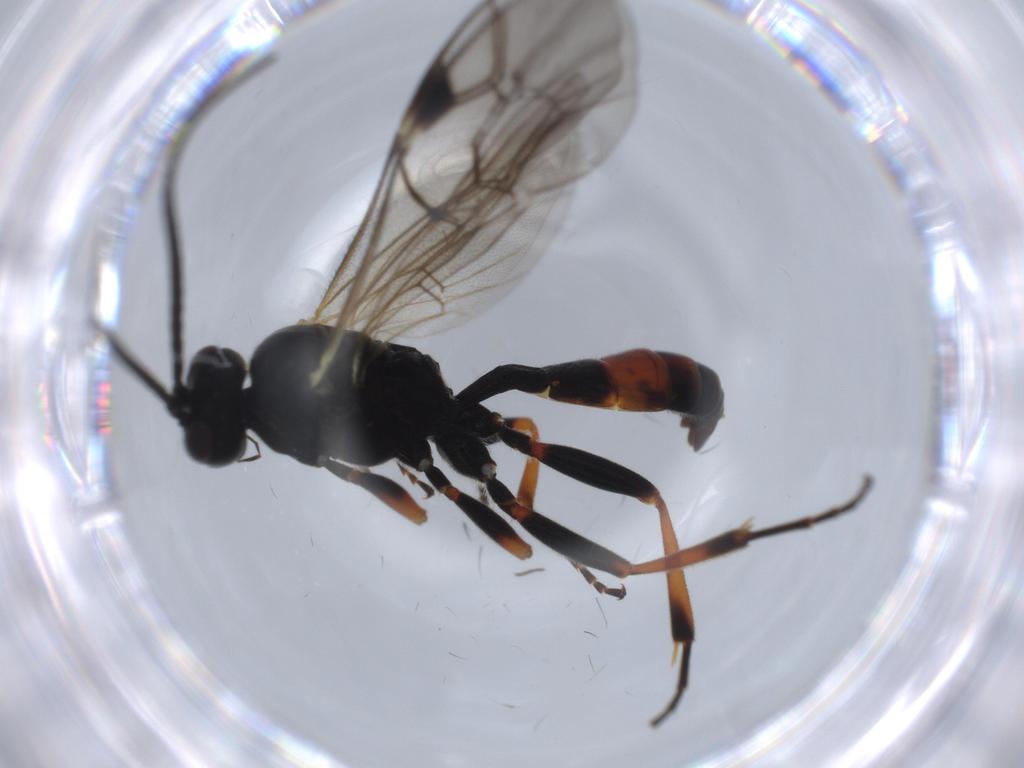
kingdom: Animalia
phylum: Arthropoda
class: Insecta
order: Hymenoptera
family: Ichneumonidae
